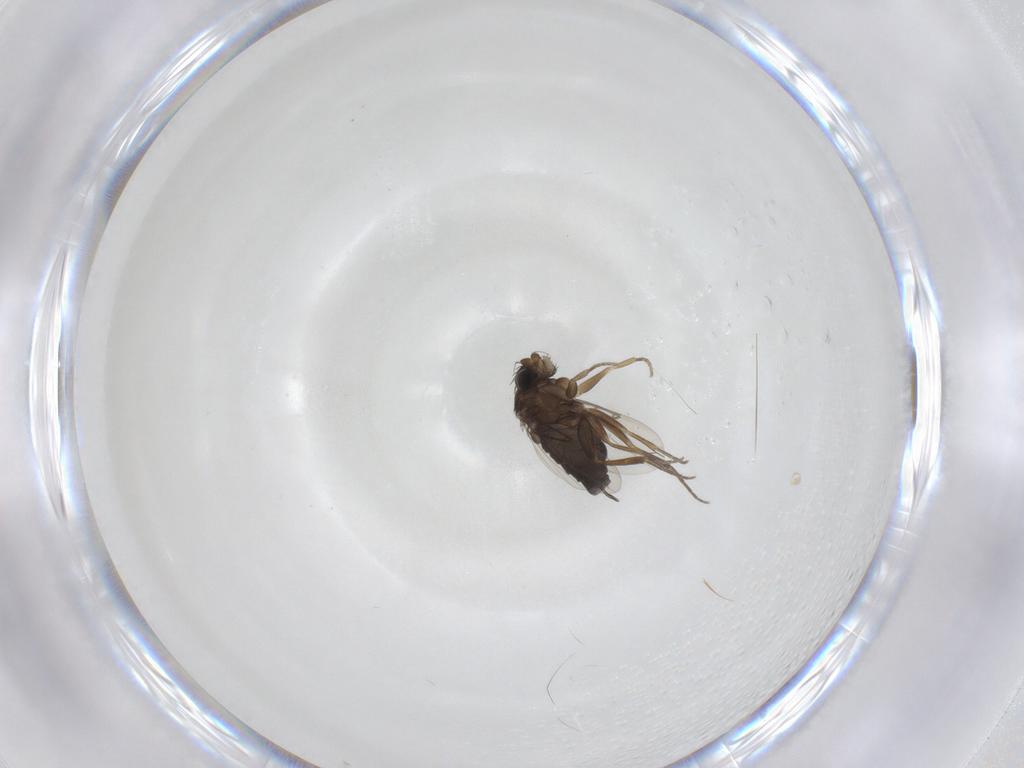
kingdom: Animalia
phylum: Arthropoda
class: Insecta
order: Diptera
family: Phoridae
